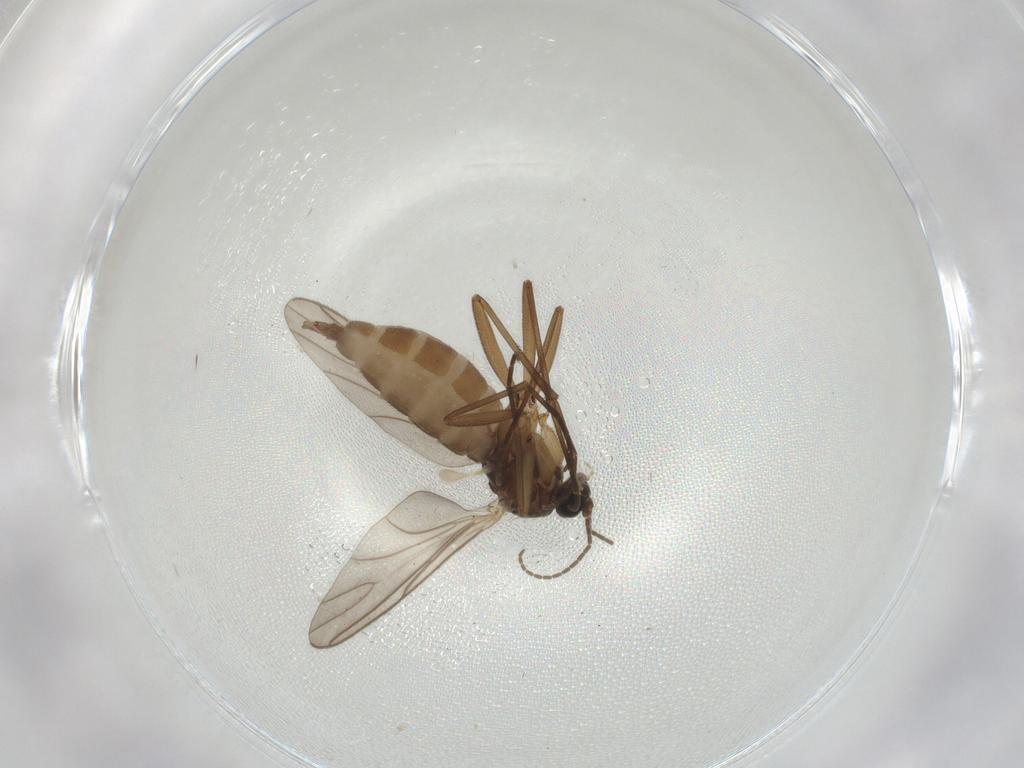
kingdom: Animalia
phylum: Arthropoda
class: Insecta
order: Diptera
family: Sciaridae
